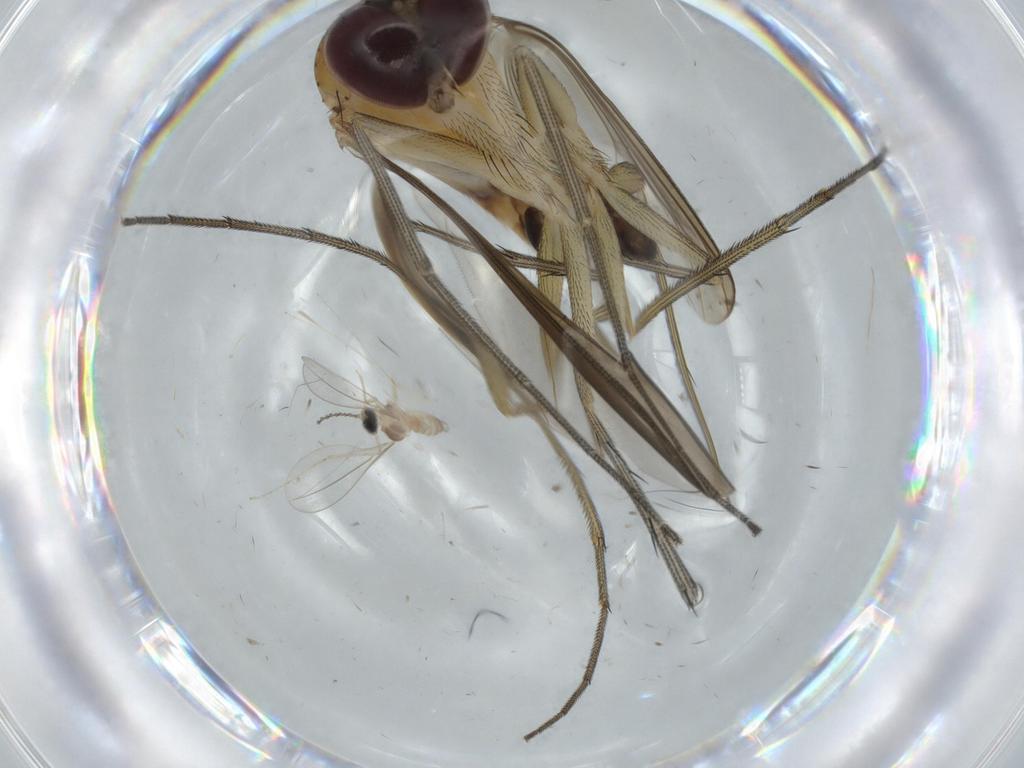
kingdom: Animalia
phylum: Arthropoda
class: Insecta
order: Diptera
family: Dolichopodidae
